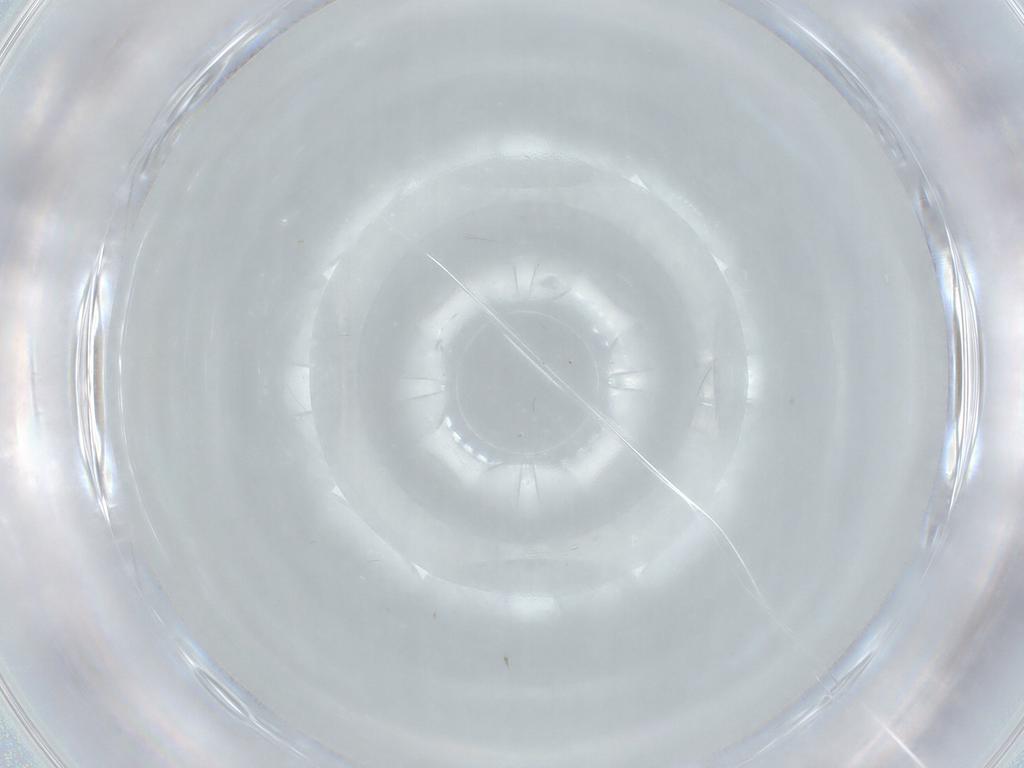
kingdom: Animalia
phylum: Arthropoda
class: Insecta
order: Diptera
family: Cecidomyiidae
